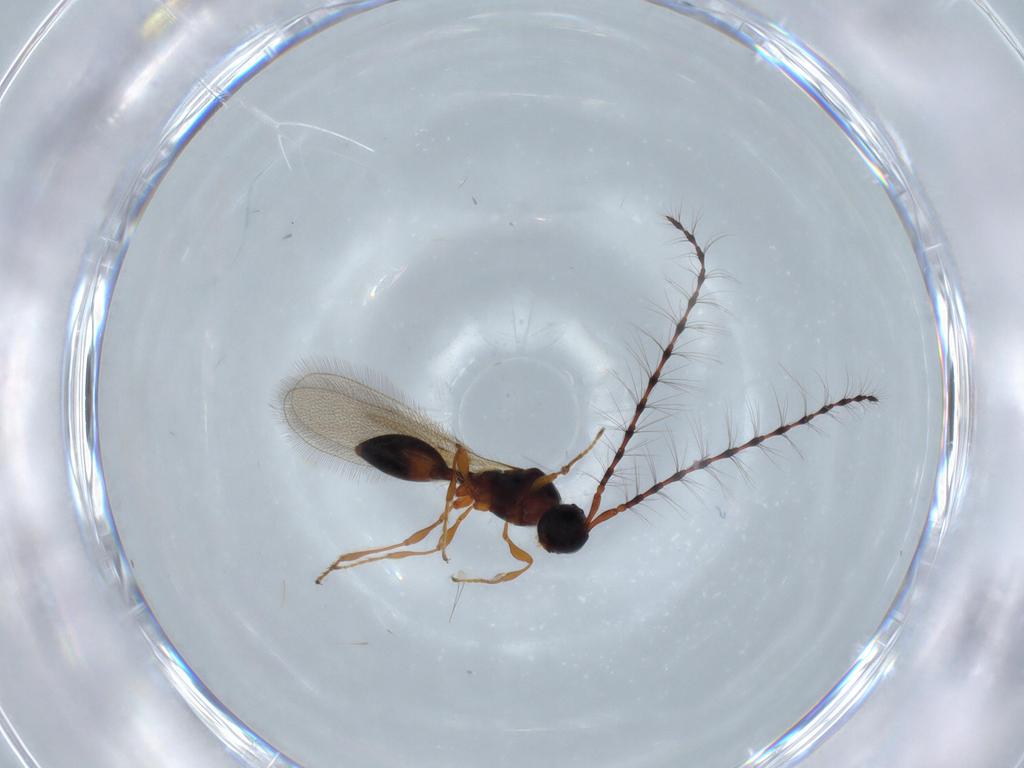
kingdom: Animalia
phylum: Arthropoda
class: Insecta
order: Hymenoptera
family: Diapriidae
